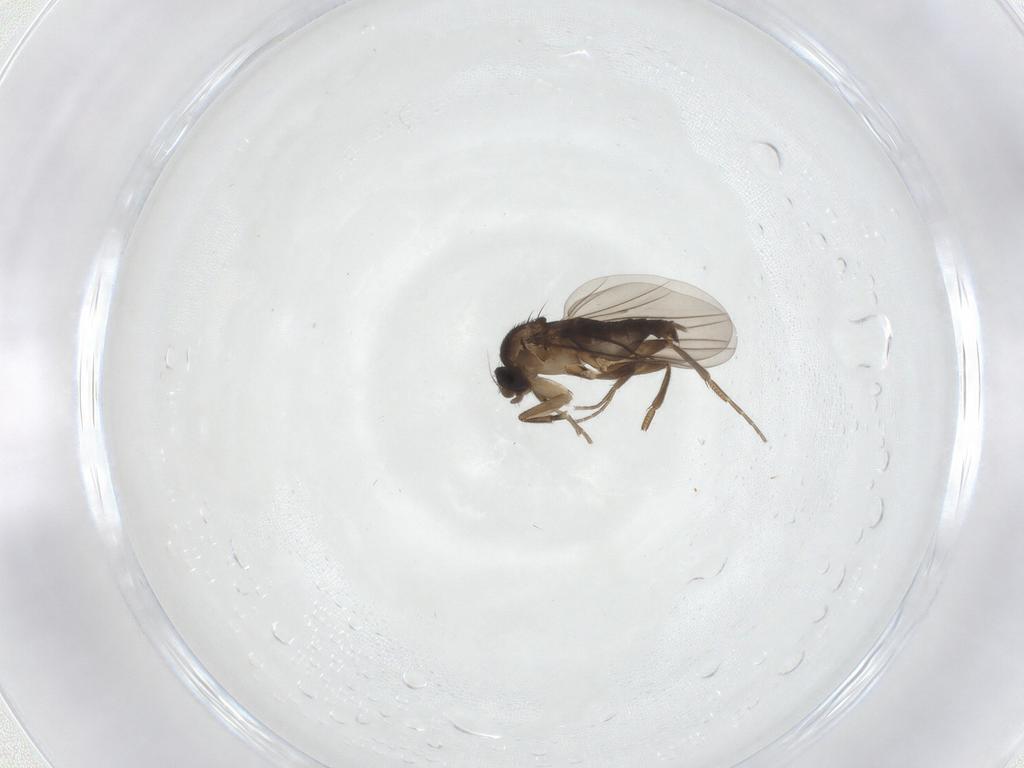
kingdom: Animalia
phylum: Arthropoda
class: Insecta
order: Diptera
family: Phoridae
